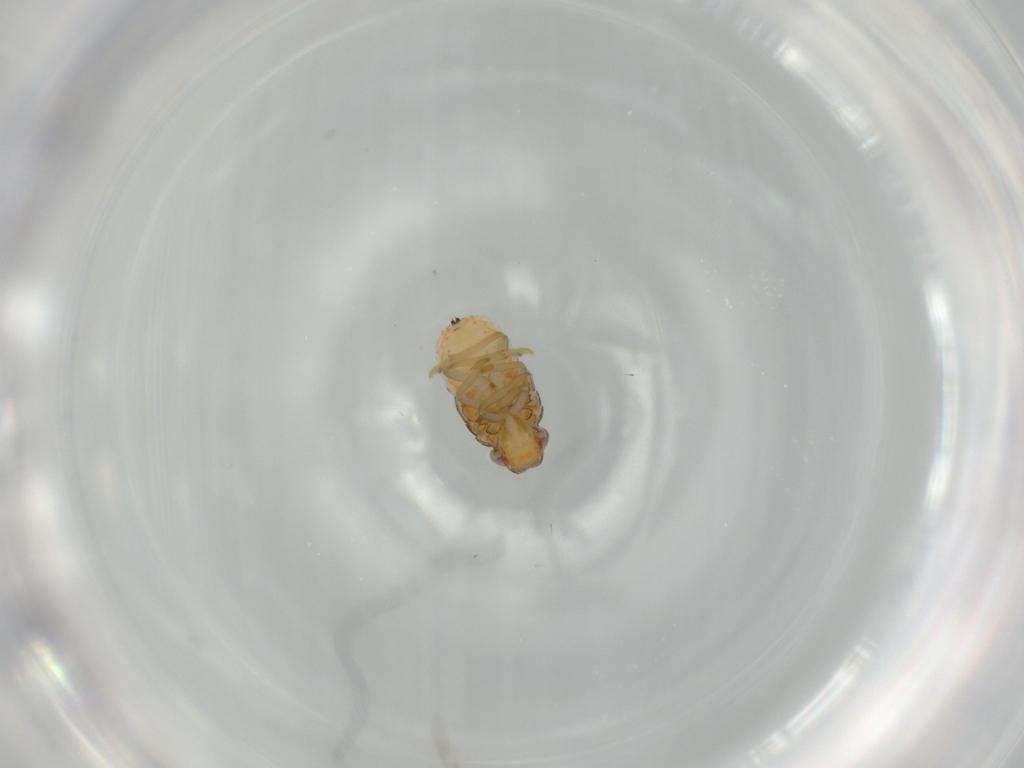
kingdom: Animalia
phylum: Arthropoda
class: Insecta
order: Hemiptera
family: Issidae
